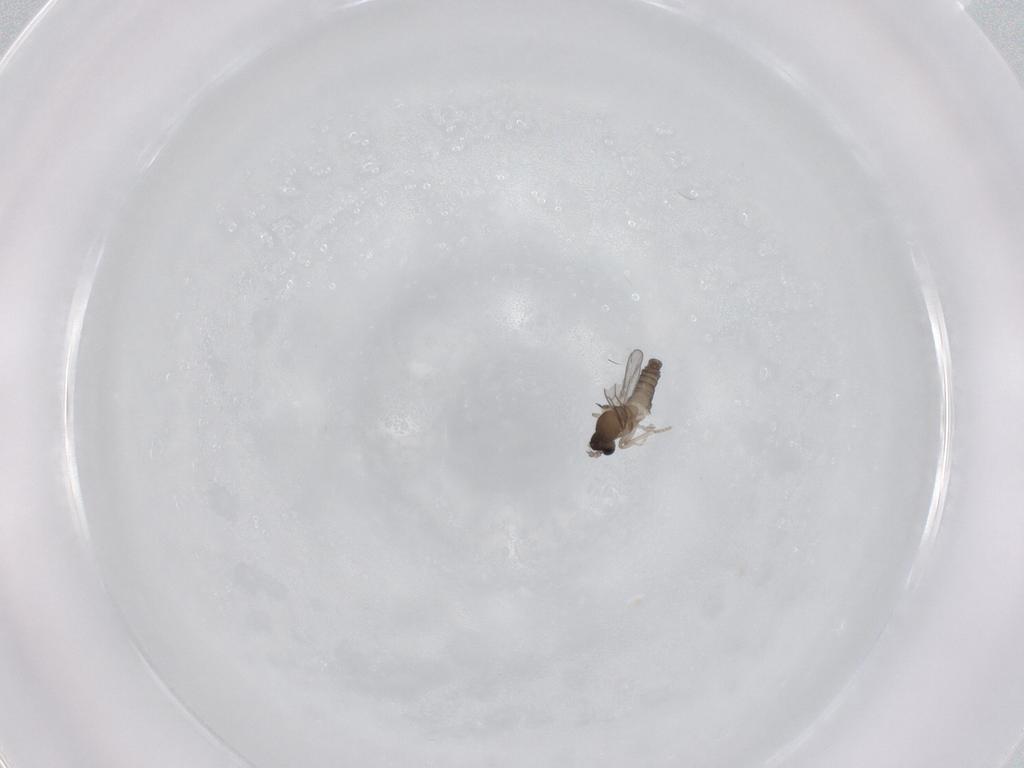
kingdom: Animalia
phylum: Arthropoda
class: Insecta
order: Diptera
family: Cecidomyiidae
